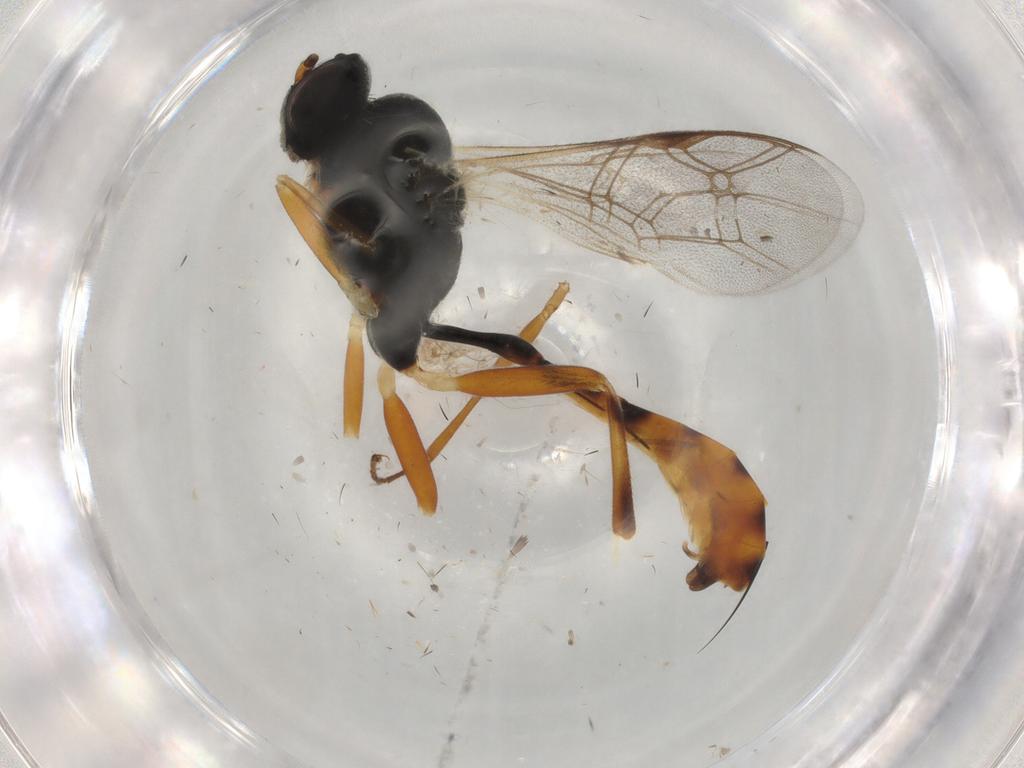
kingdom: Animalia
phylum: Arthropoda
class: Insecta
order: Hymenoptera
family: Ichneumonidae
